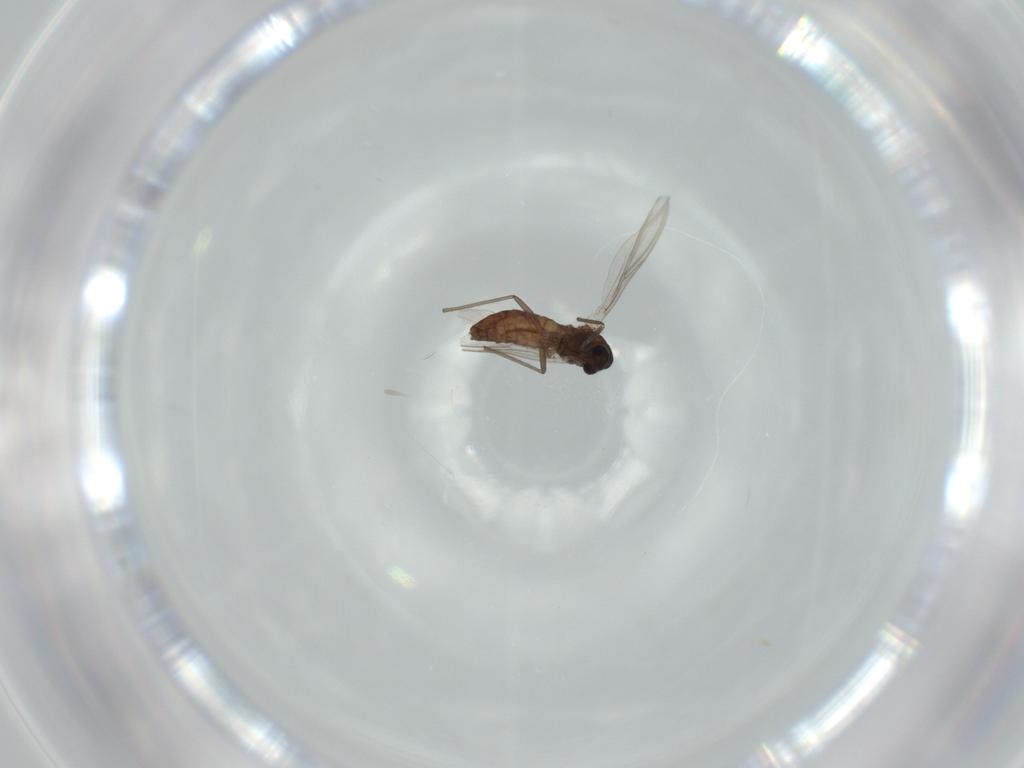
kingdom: Animalia
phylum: Arthropoda
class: Insecta
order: Diptera
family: Chironomidae
